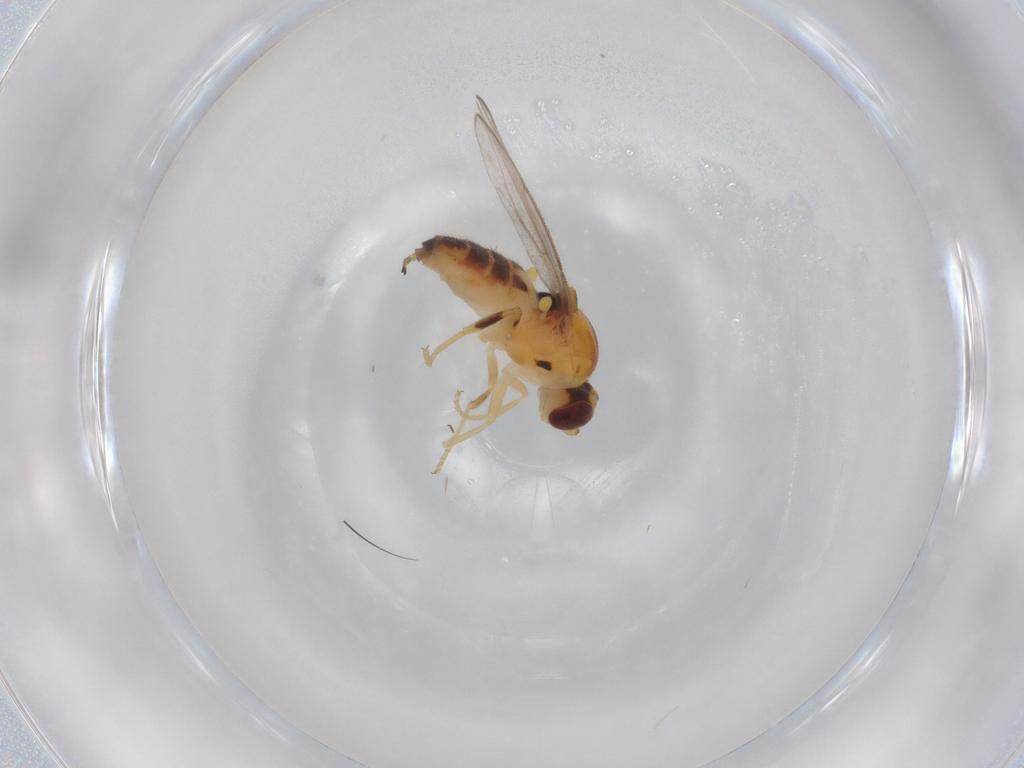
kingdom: Animalia
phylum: Arthropoda
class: Insecta
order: Diptera
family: Chloropidae
